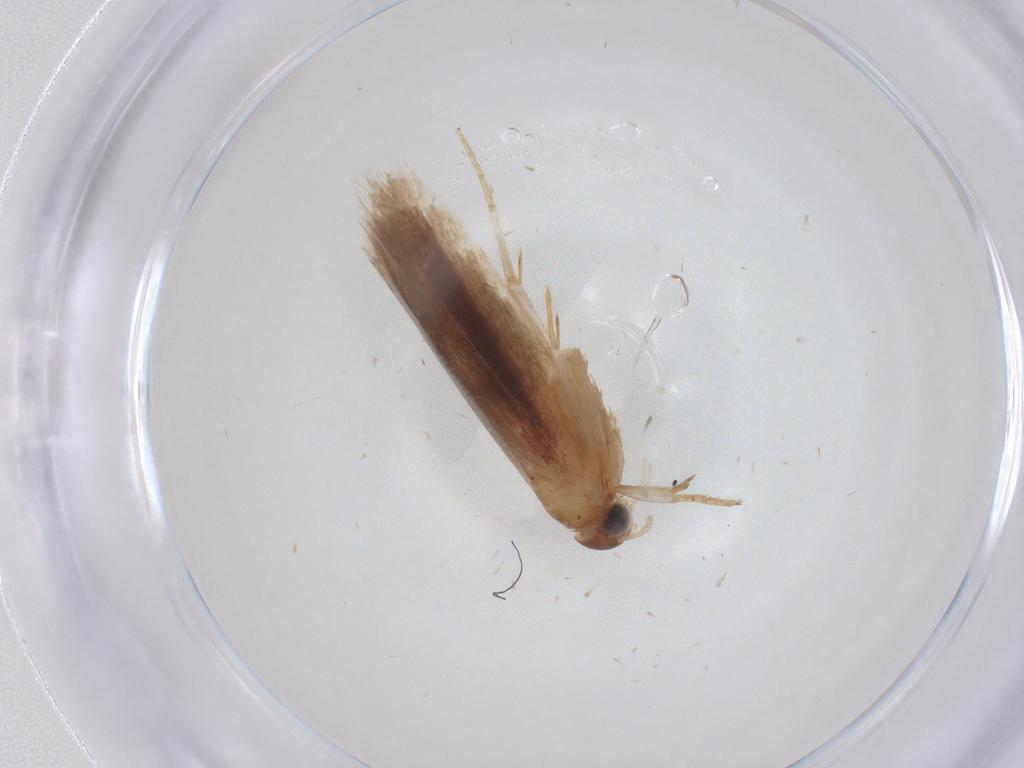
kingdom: Animalia
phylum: Arthropoda
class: Insecta
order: Lepidoptera
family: Gelechiidae
